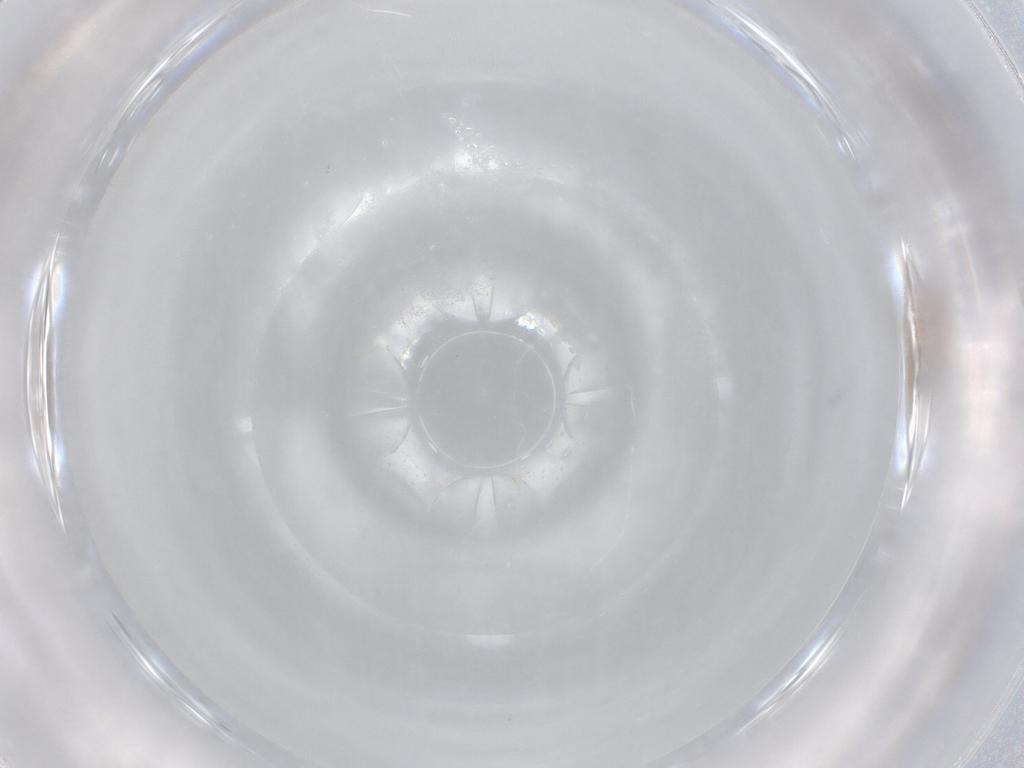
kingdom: Animalia
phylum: Arthropoda
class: Insecta
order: Hymenoptera
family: Mymaridae
